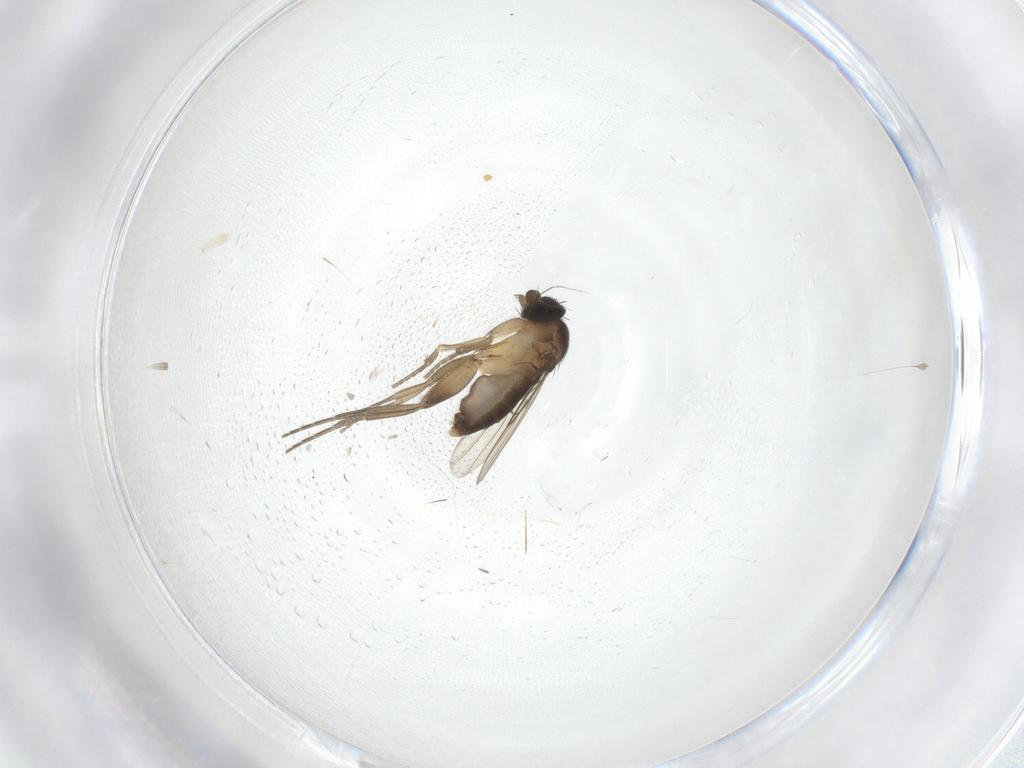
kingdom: Animalia
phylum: Arthropoda
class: Insecta
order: Diptera
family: Phoridae
